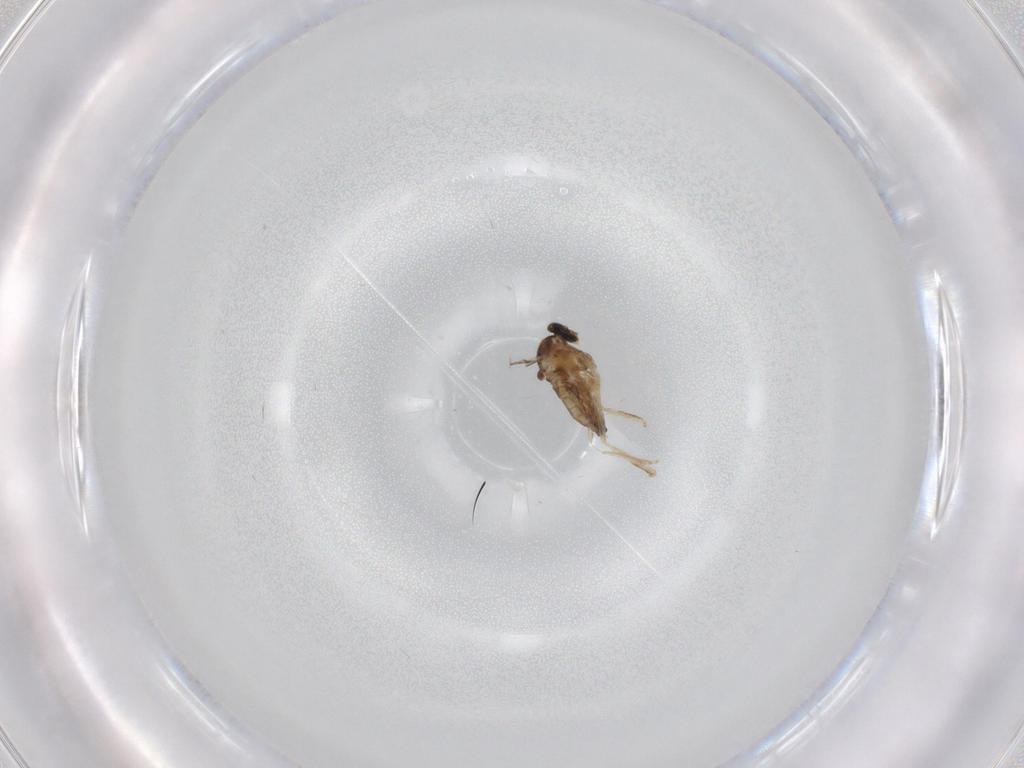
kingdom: Animalia
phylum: Arthropoda
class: Insecta
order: Diptera
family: Cecidomyiidae
